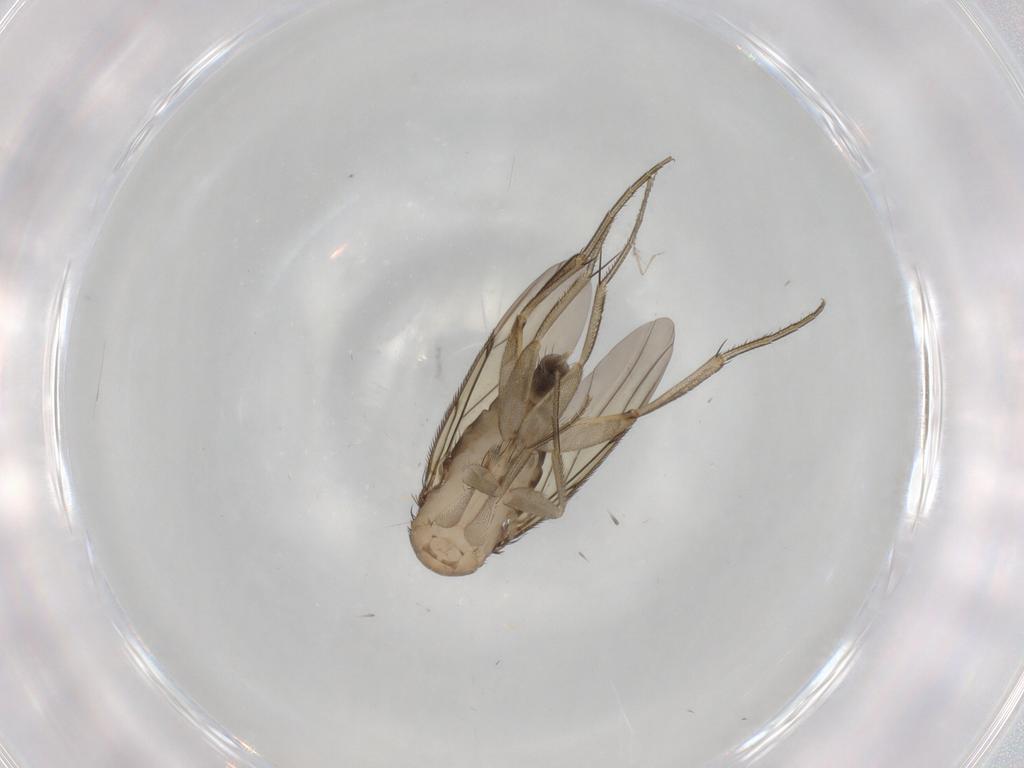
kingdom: Animalia
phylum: Arthropoda
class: Insecta
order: Diptera
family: Phoridae
